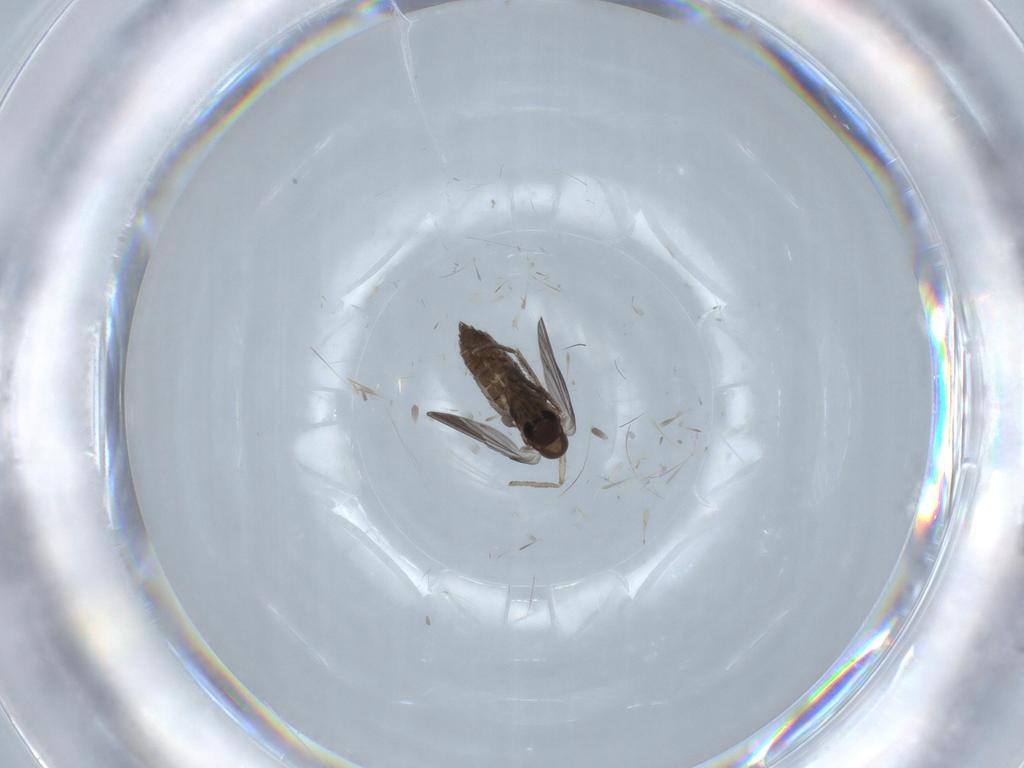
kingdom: Animalia
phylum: Arthropoda
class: Insecta
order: Diptera
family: Psychodidae
